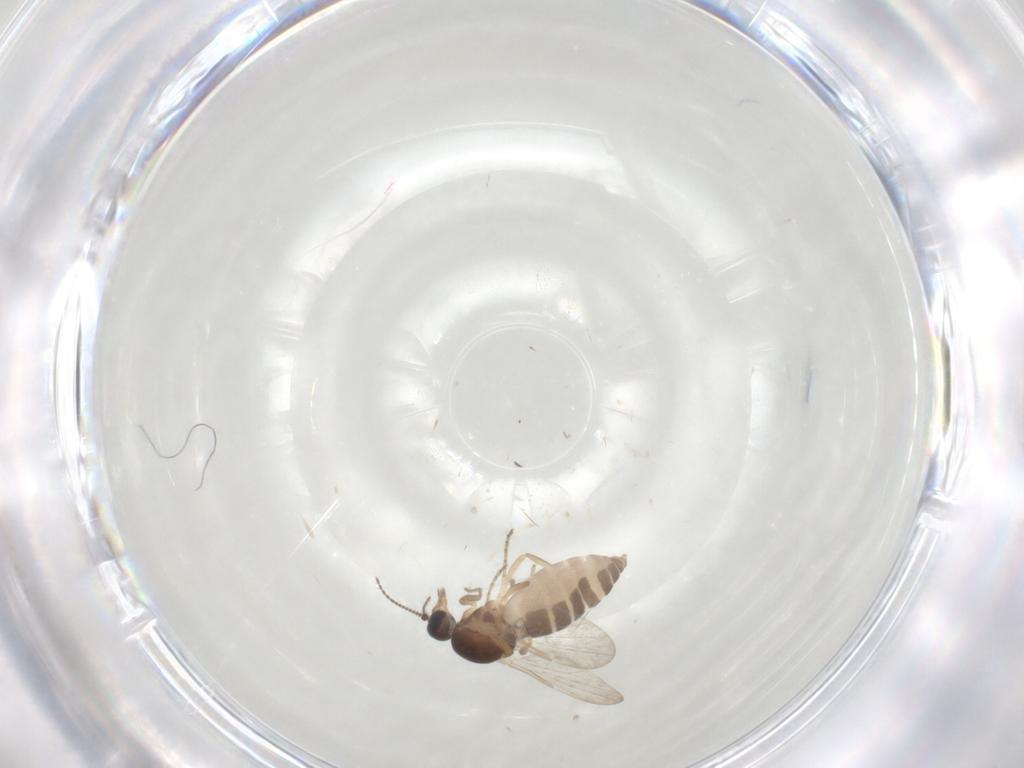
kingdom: Animalia
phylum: Arthropoda
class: Insecta
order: Diptera
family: Ceratopogonidae
